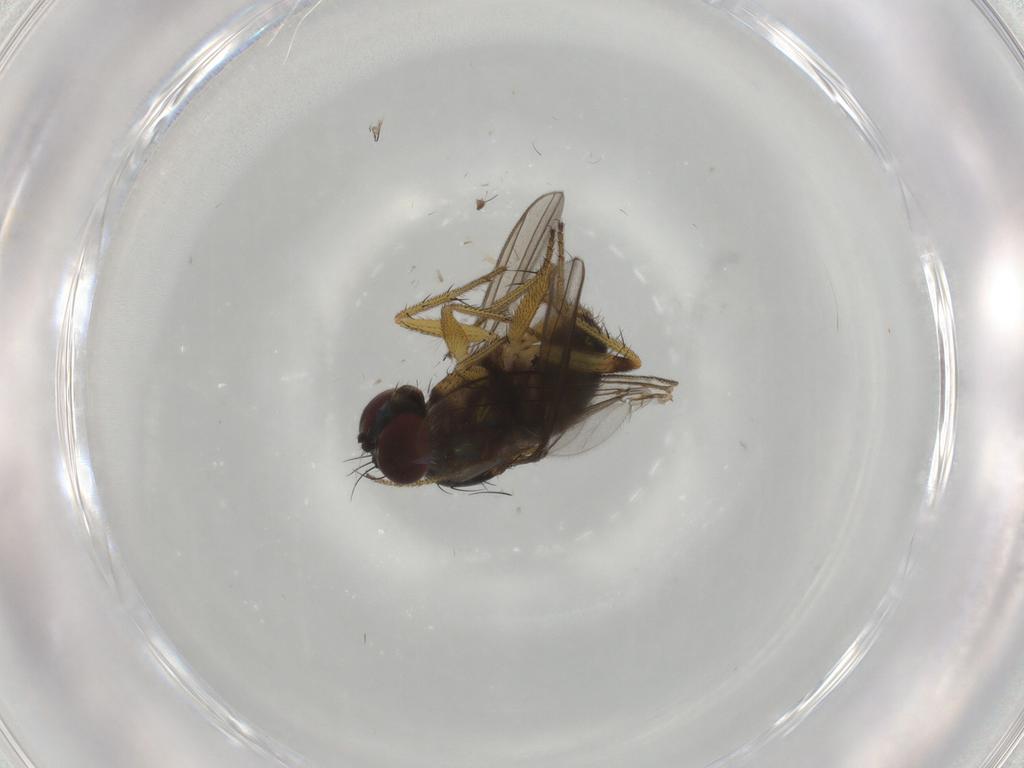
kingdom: Animalia
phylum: Arthropoda
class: Insecta
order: Diptera
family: Dolichopodidae
